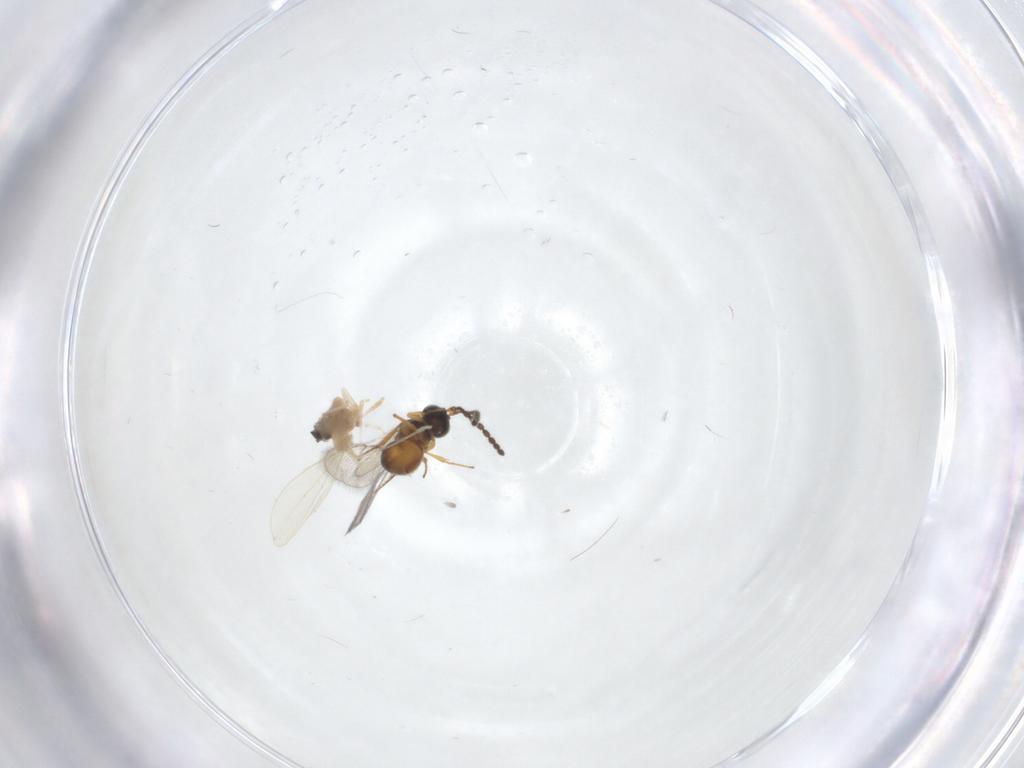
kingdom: Animalia
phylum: Arthropoda
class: Insecta
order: Diptera
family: Cecidomyiidae
